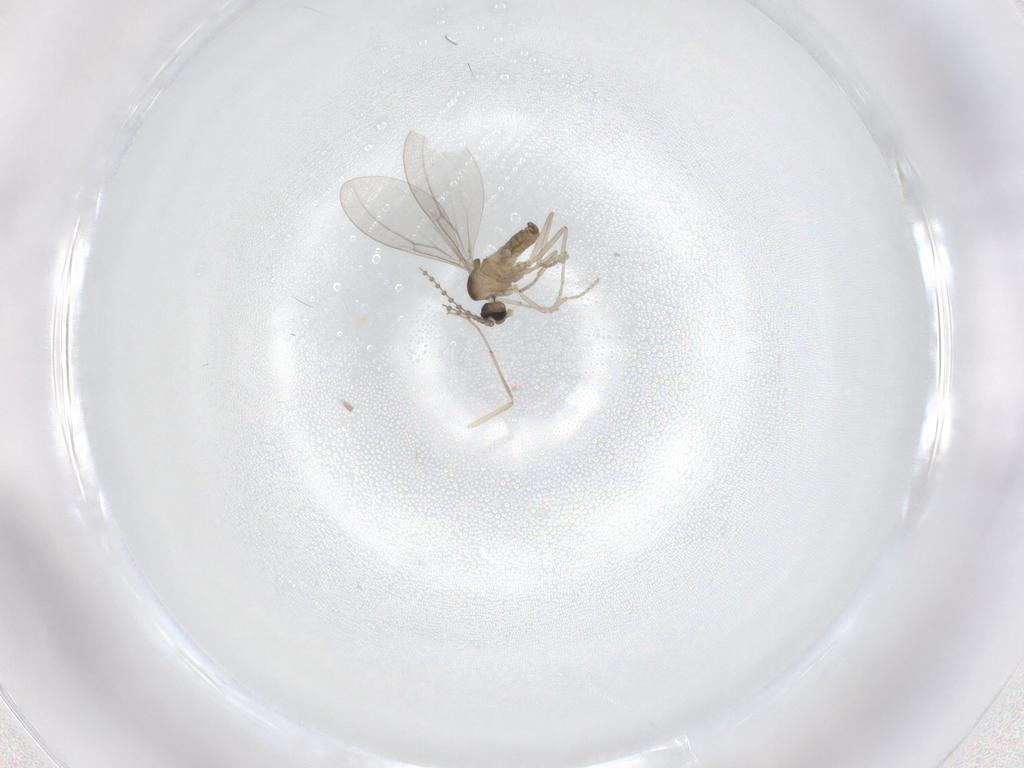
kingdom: Animalia
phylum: Arthropoda
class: Insecta
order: Diptera
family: Cecidomyiidae
